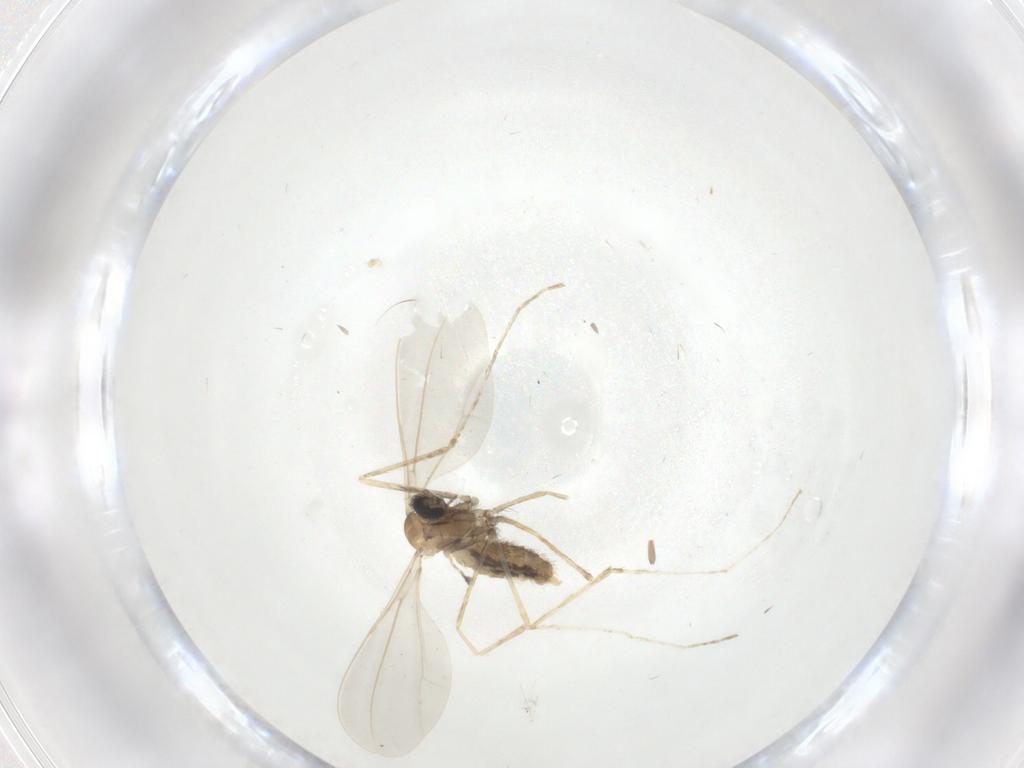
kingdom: Animalia
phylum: Arthropoda
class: Insecta
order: Diptera
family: Cecidomyiidae
